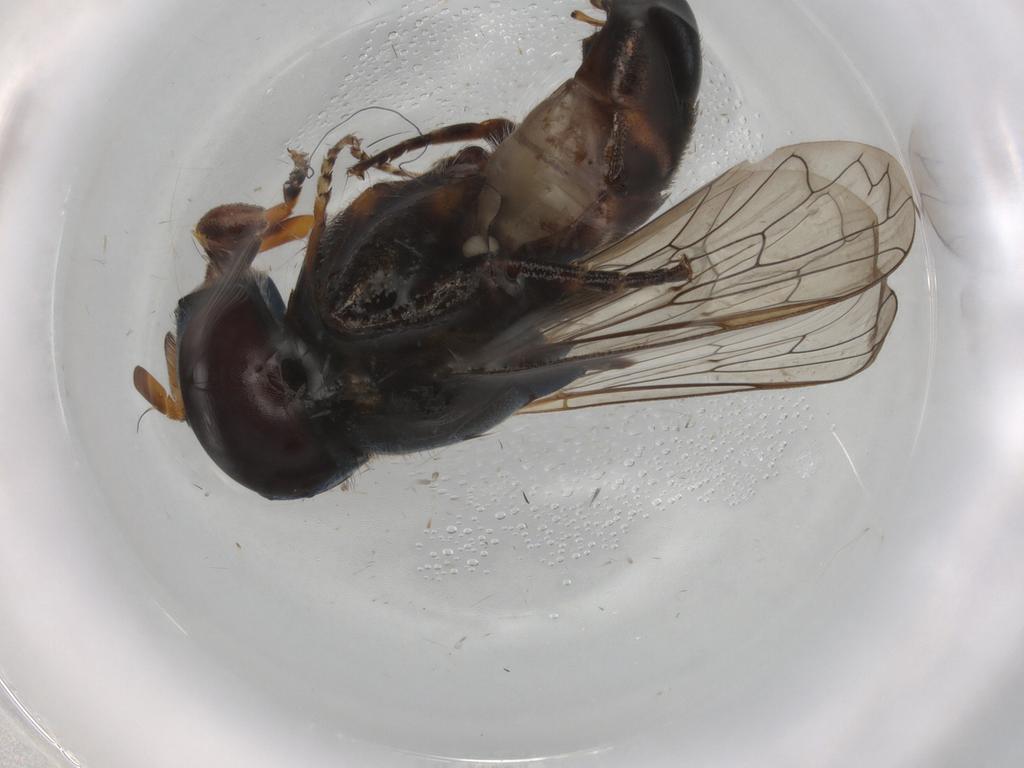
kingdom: Animalia
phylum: Arthropoda
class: Insecta
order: Diptera
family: Syrphidae
